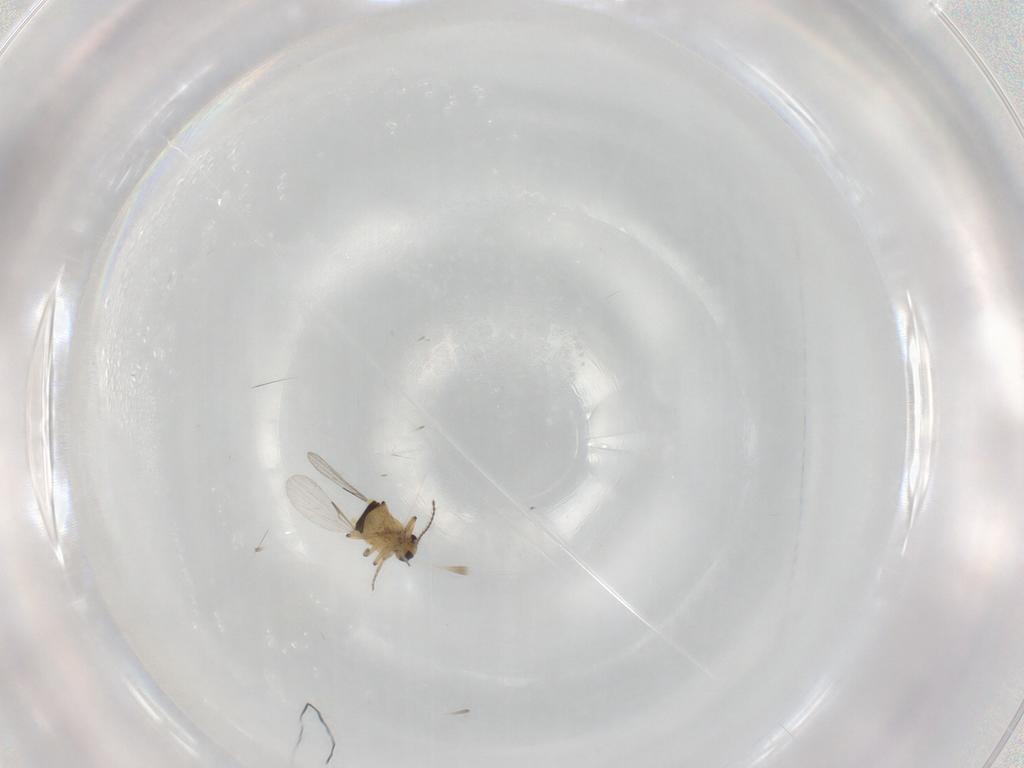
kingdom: Animalia
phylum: Arthropoda
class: Insecta
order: Diptera
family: Ceratopogonidae
